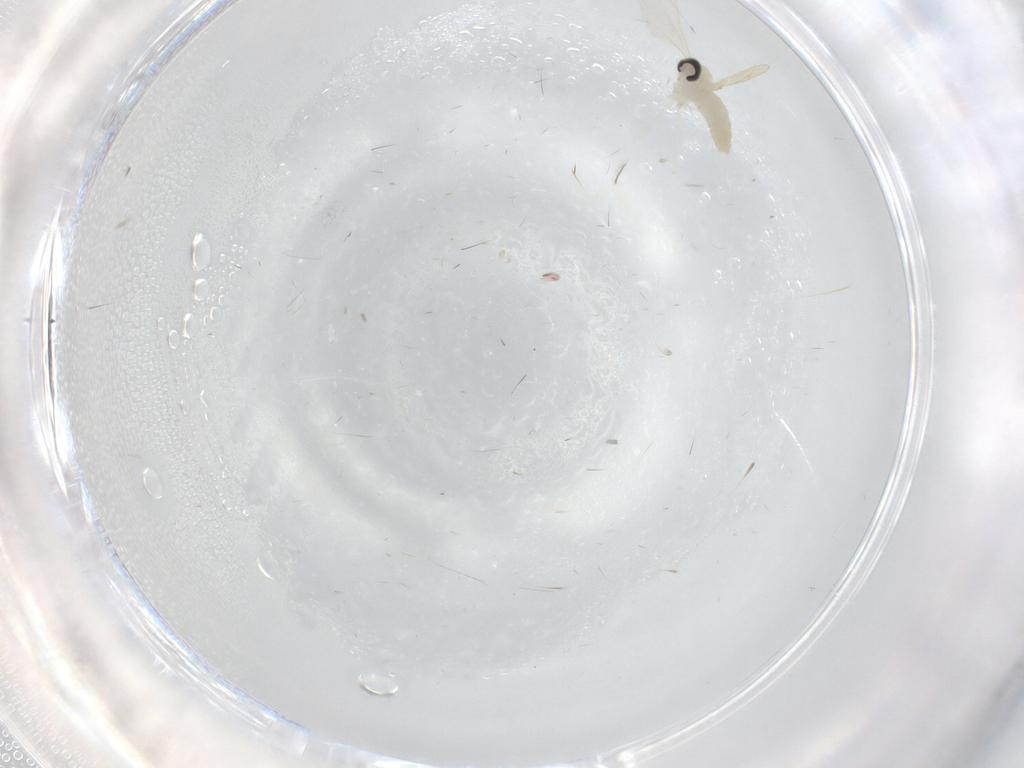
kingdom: Animalia
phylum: Arthropoda
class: Insecta
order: Diptera
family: Cecidomyiidae
